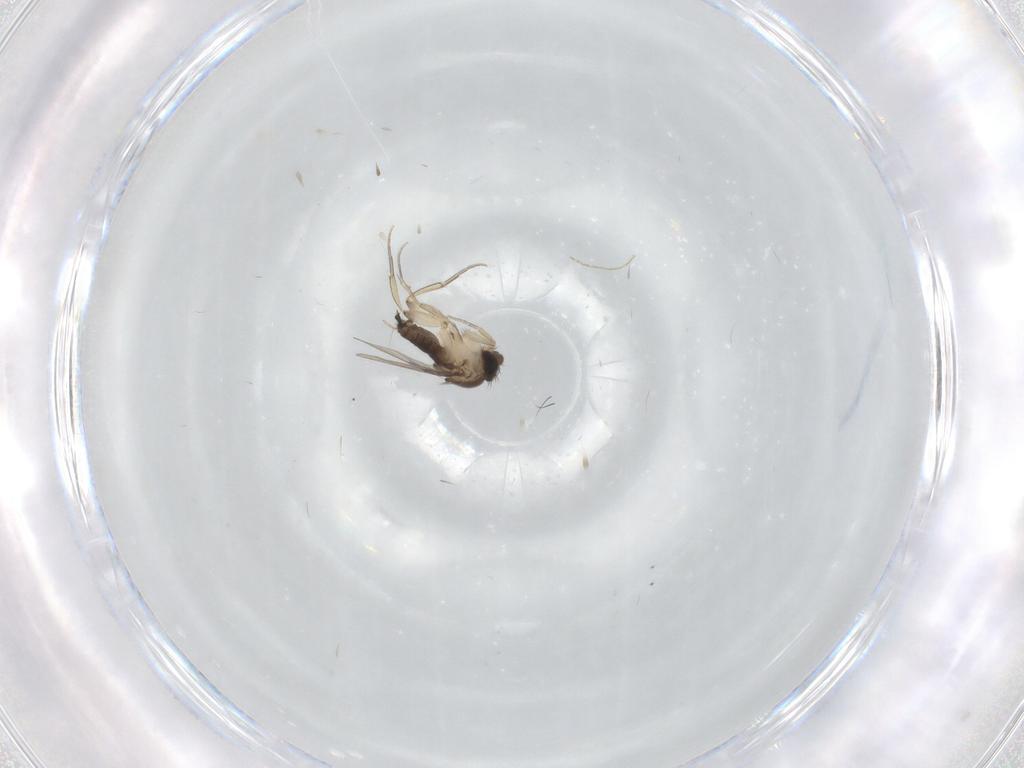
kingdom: Animalia
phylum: Arthropoda
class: Insecta
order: Diptera
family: Phoridae
